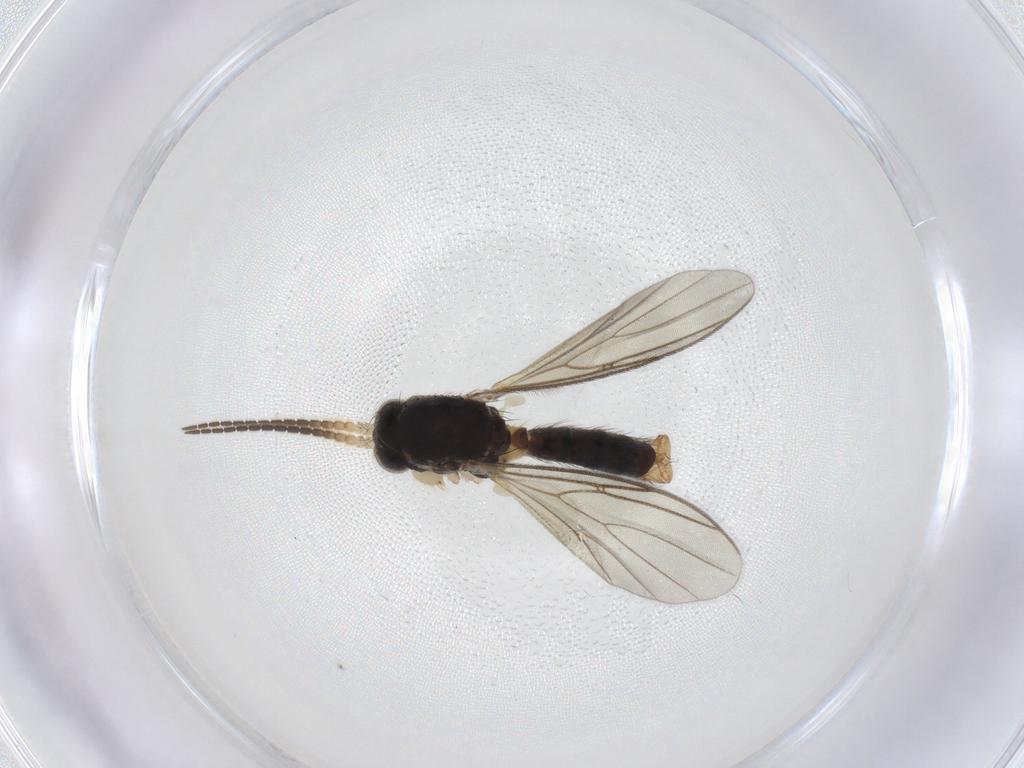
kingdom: Animalia
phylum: Arthropoda
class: Insecta
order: Diptera
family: Mycetophilidae
